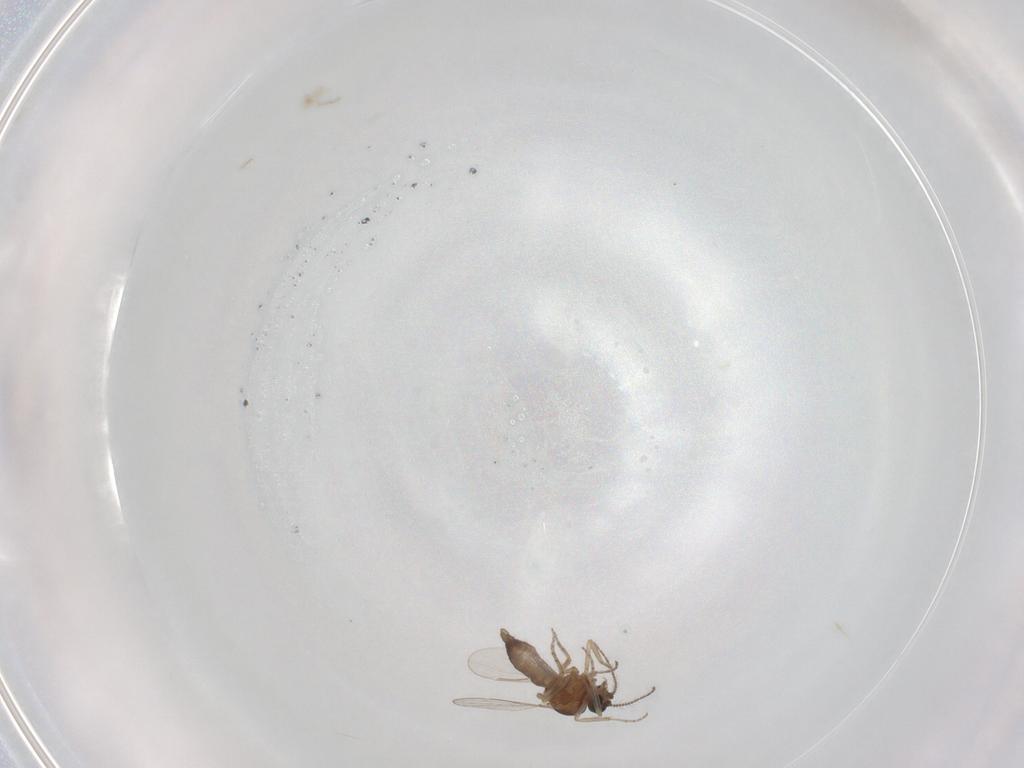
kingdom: Animalia
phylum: Arthropoda
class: Insecta
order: Diptera
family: Ceratopogonidae
